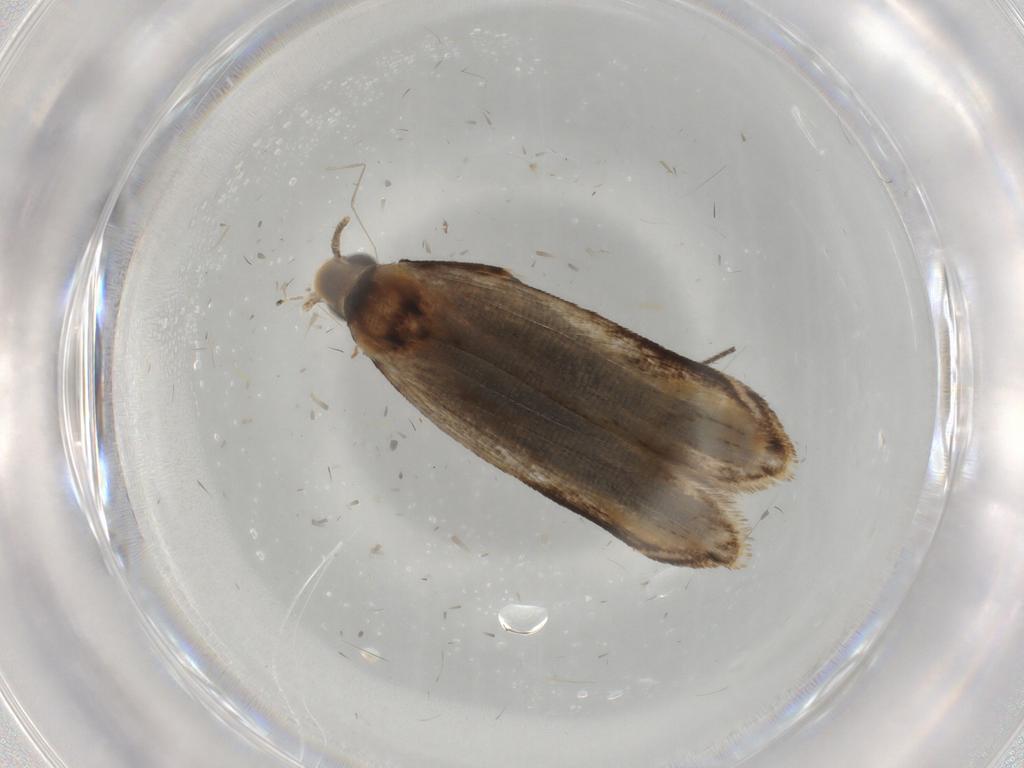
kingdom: Animalia
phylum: Arthropoda
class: Insecta
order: Lepidoptera
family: Gelechiidae
